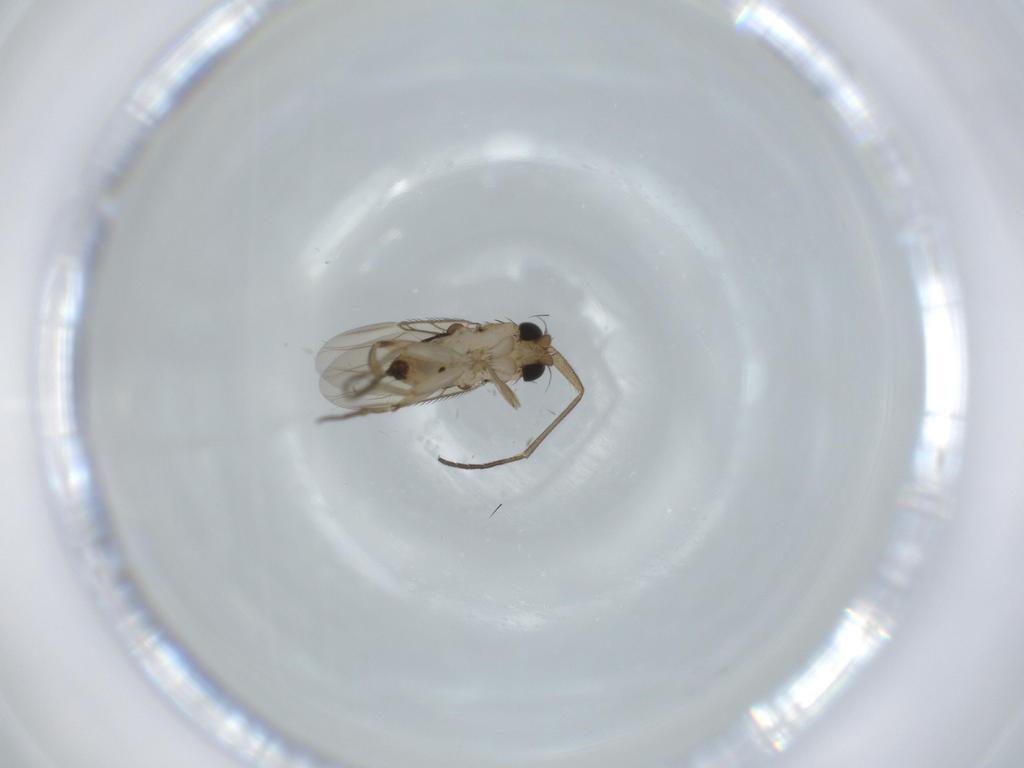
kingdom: Animalia
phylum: Arthropoda
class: Insecta
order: Diptera
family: Phoridae
